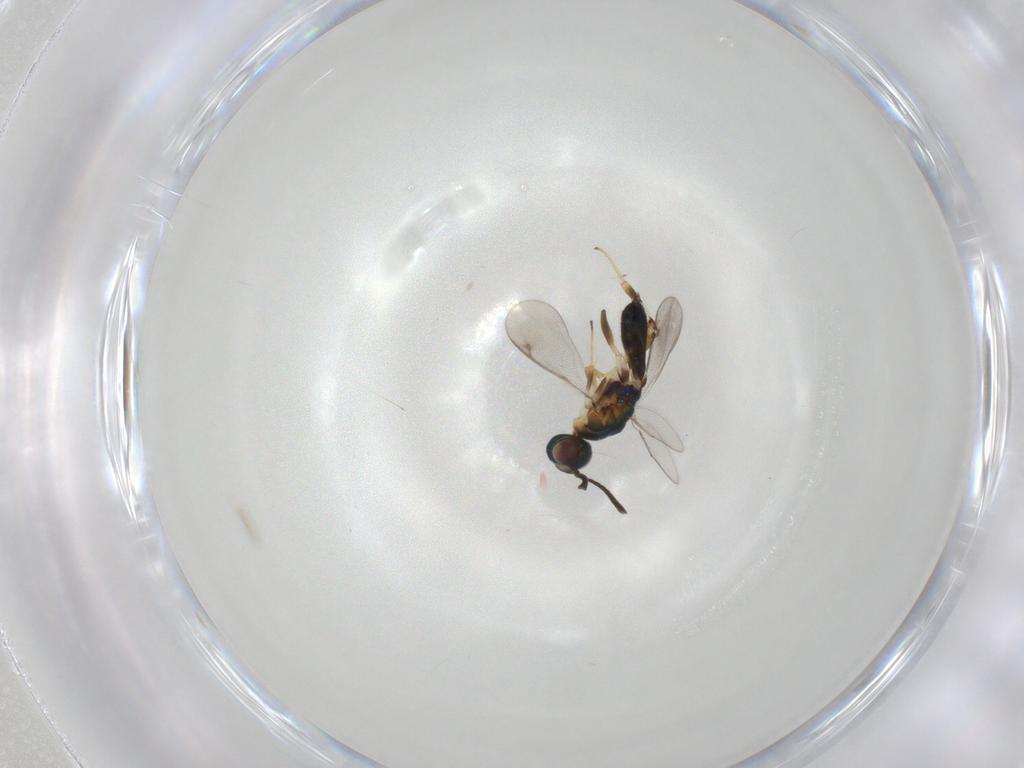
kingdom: Animalia
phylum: Arthropoda
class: Insecta
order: Hymenoptera
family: Eupelmidae
